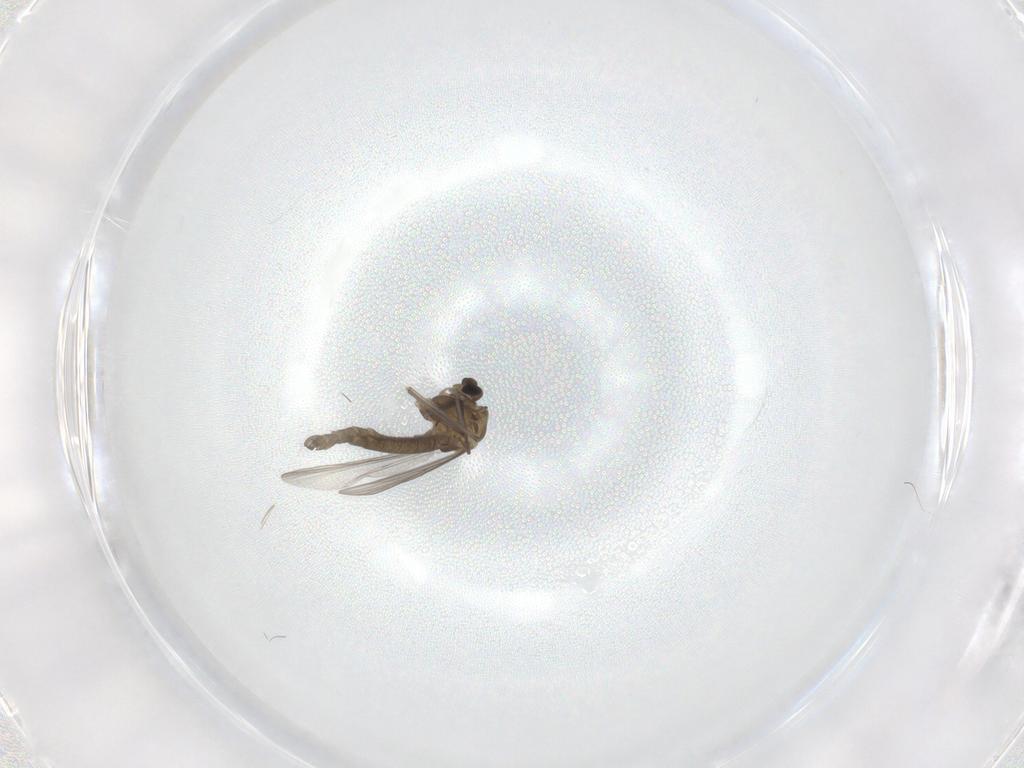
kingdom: Animalia
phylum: Arthropoda
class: Insecta
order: Diptera
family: Chironomidae
